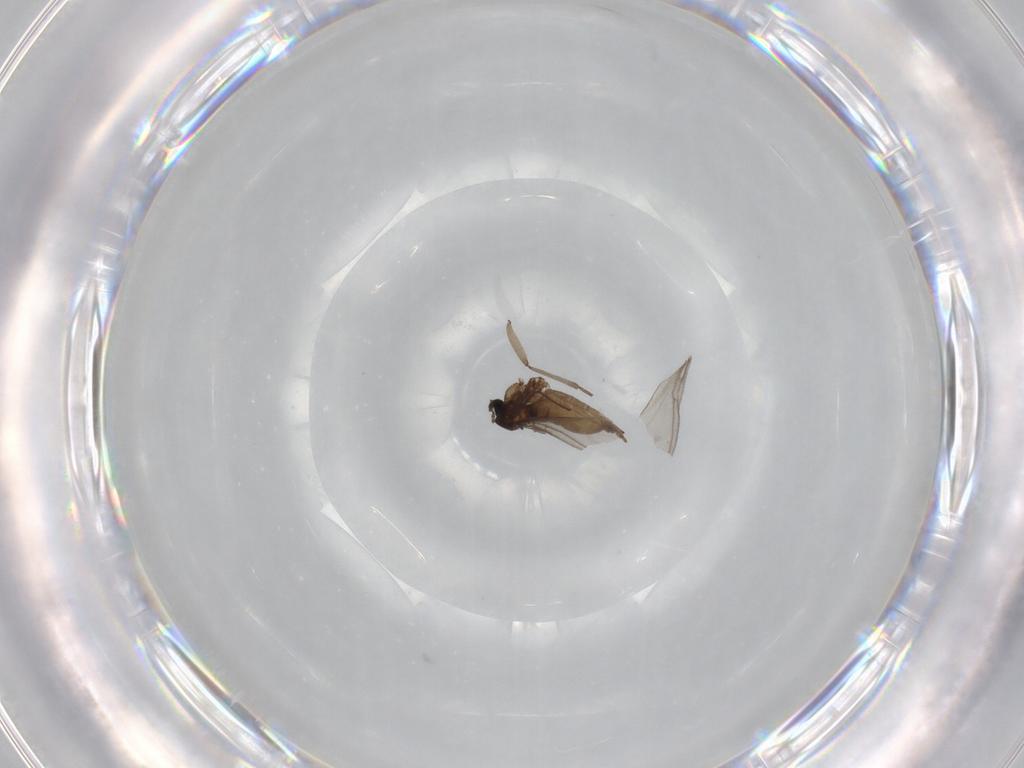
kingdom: Animalia
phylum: Arthropoda
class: Insecta
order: Diptera
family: Sciaridae
